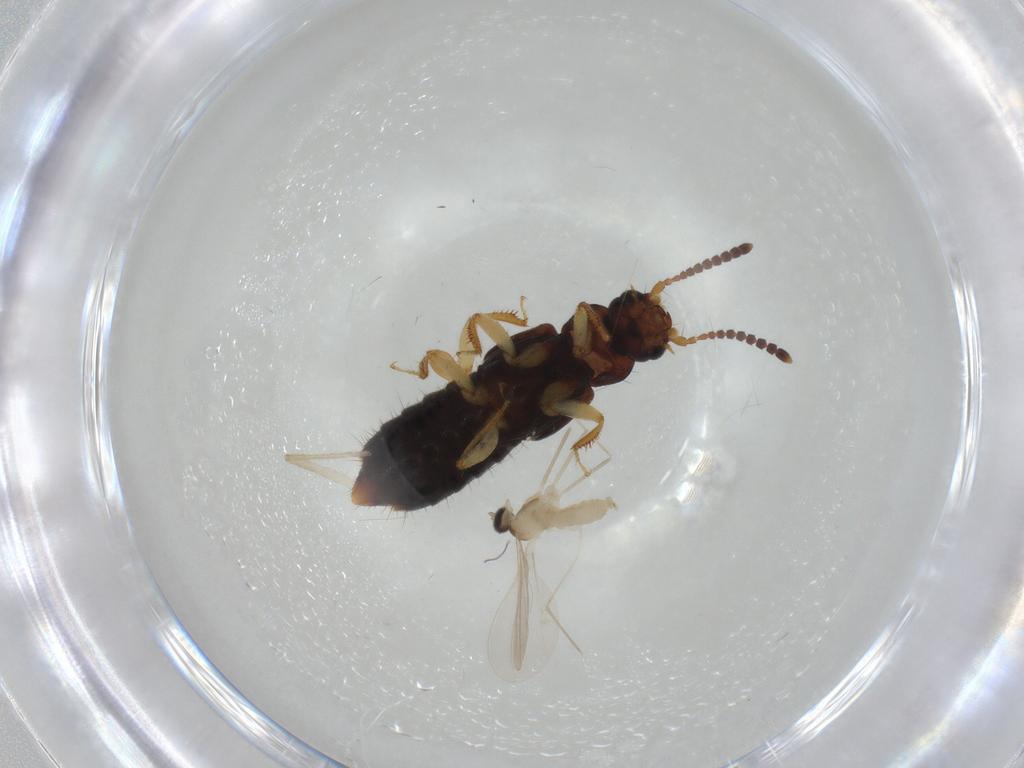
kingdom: Animalia
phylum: Arthropoda
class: Insecta
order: Diptera
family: Cecidomyiidae
